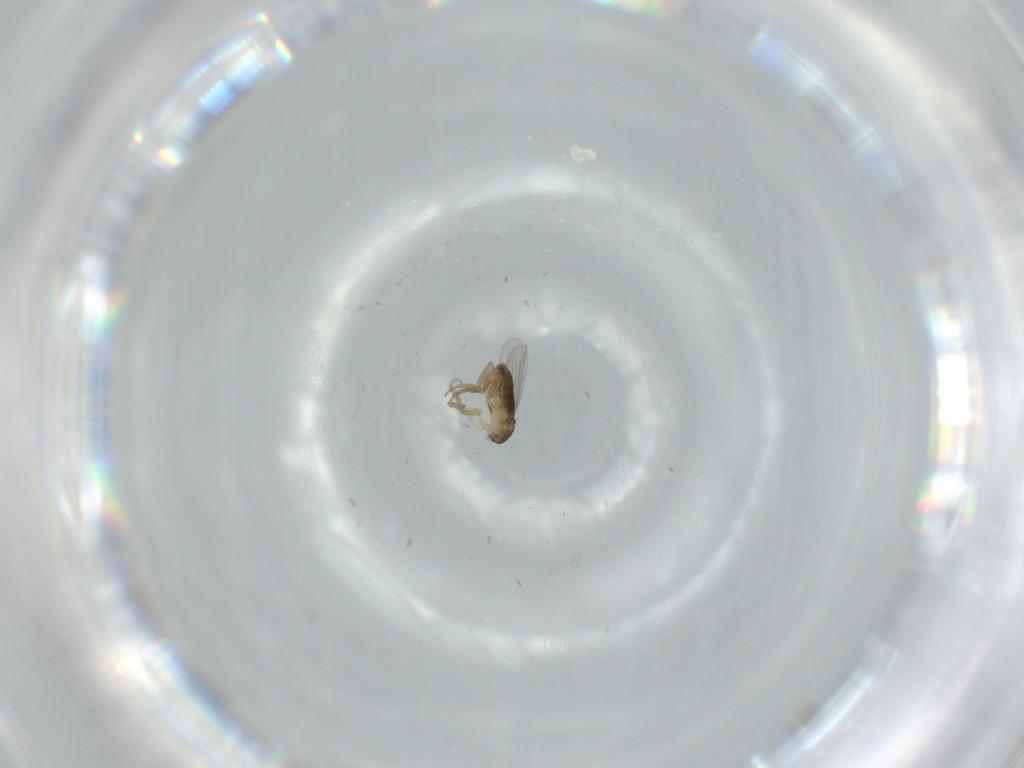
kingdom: Animalia
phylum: Arthropoda
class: Insecta
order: Diptera
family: Phoridae
